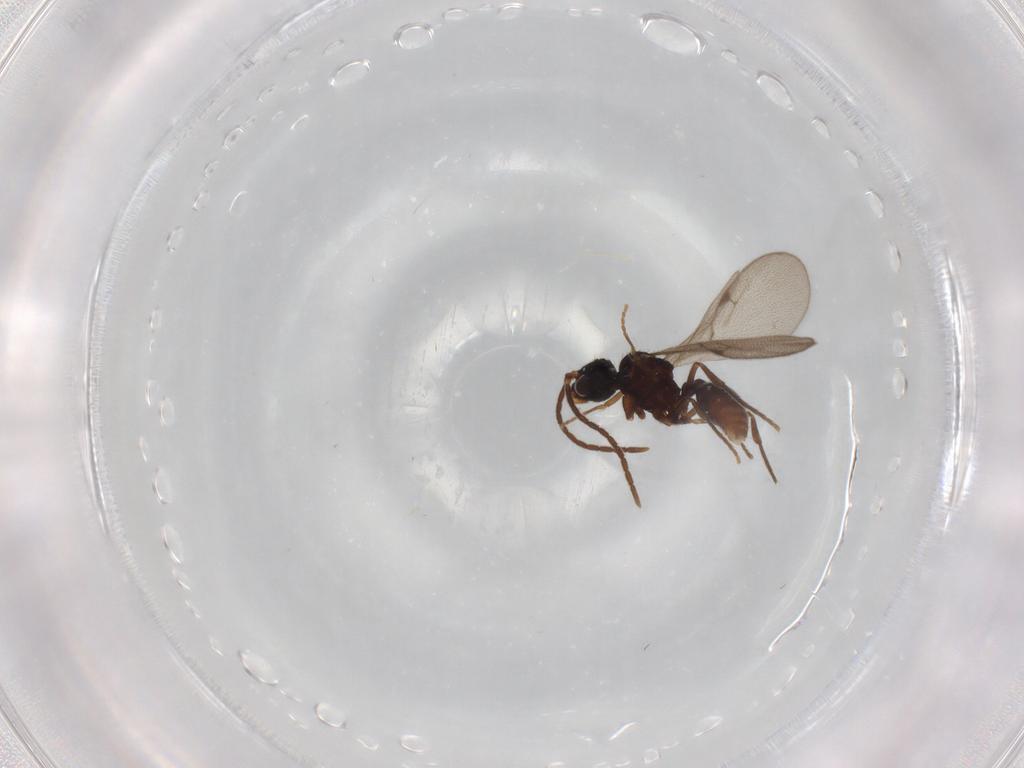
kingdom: Animalia
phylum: Arthropoda
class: Insecta
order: Hymenoptera
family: Formicidae
